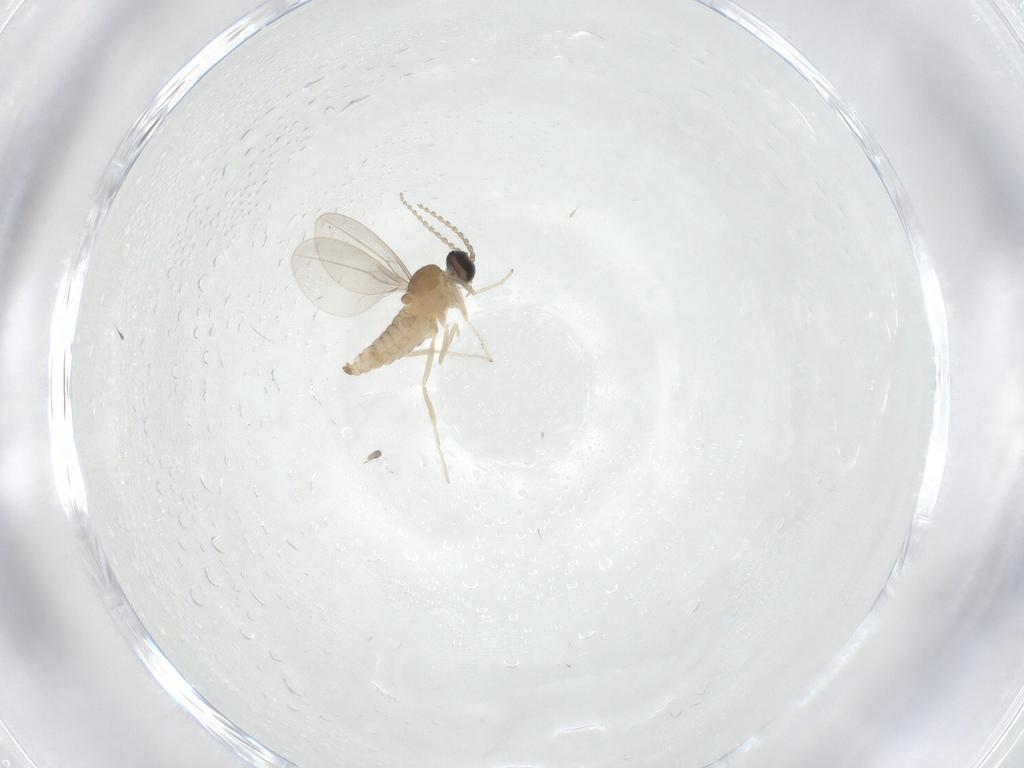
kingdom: Animalia
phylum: Arthropoda
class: Insecta
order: Diptera
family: Cecidomyiidae
